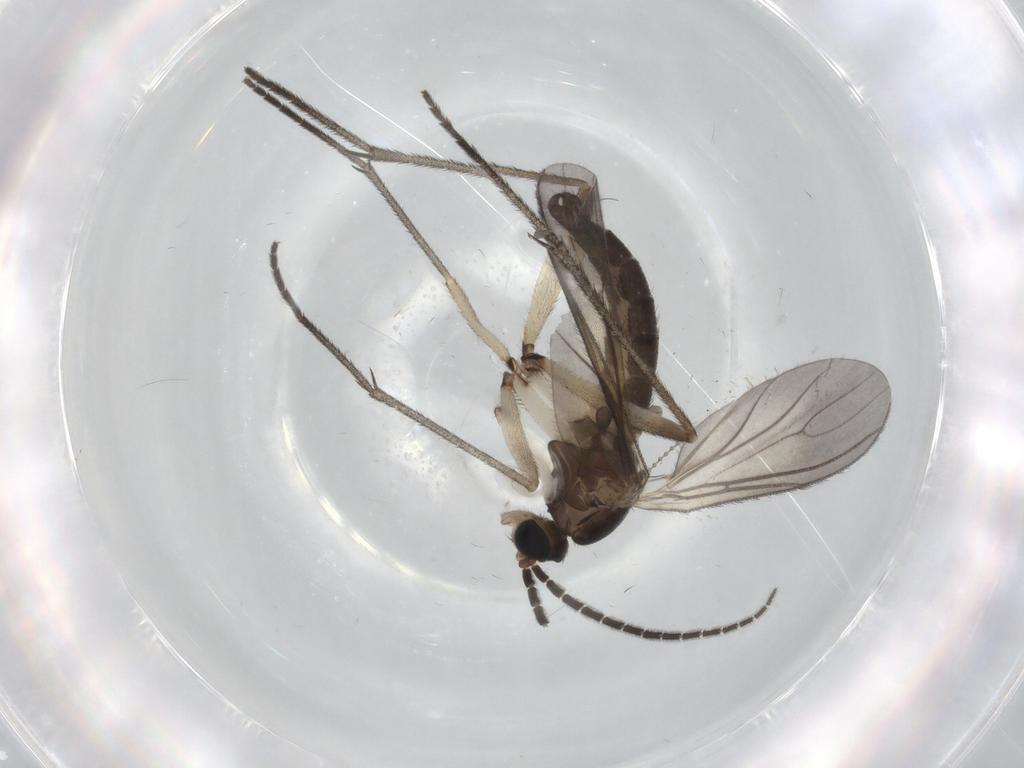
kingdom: Animalia
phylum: Arthropoda
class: Insecta
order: Diptera
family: Sciaridae
